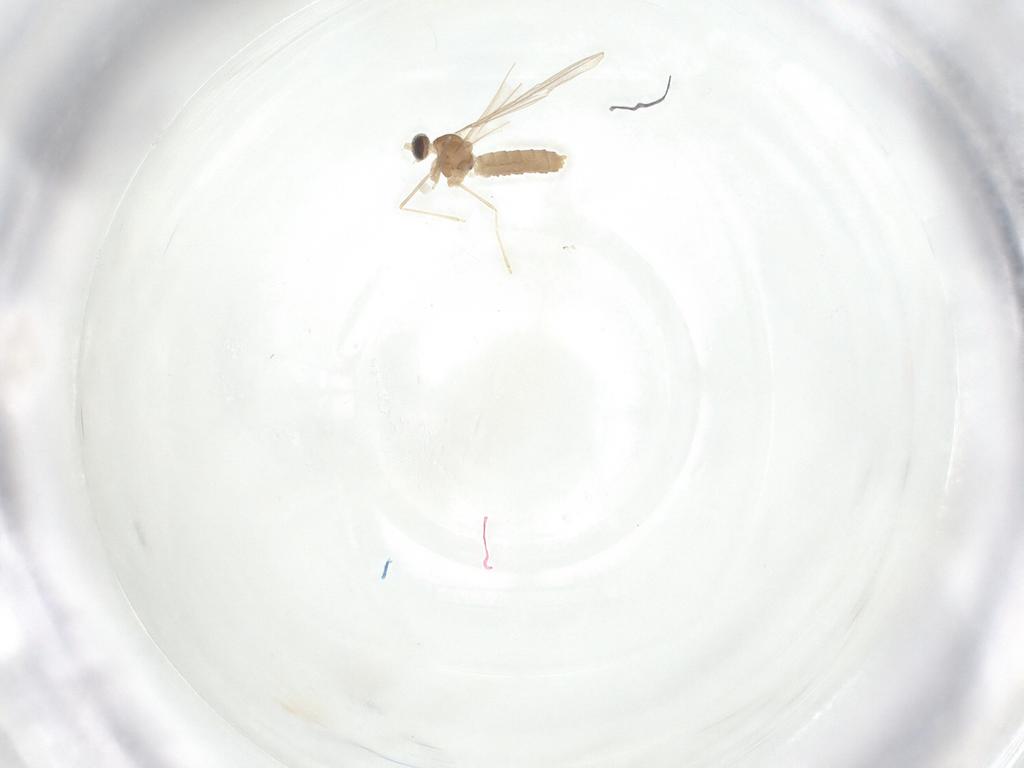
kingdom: Animalia
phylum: Arthropoda
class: Insecta
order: Diptera
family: Cecidomyiidae
